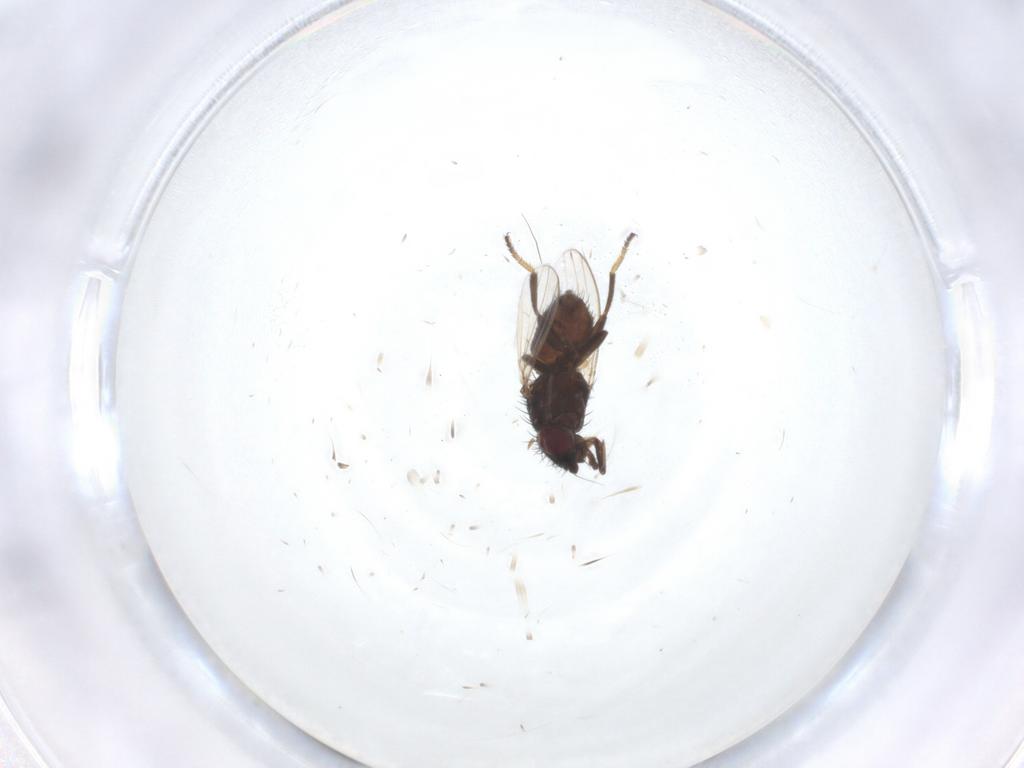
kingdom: Animalia
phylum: Arthropoda
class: Insecta
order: Diptera
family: Milichiidae
